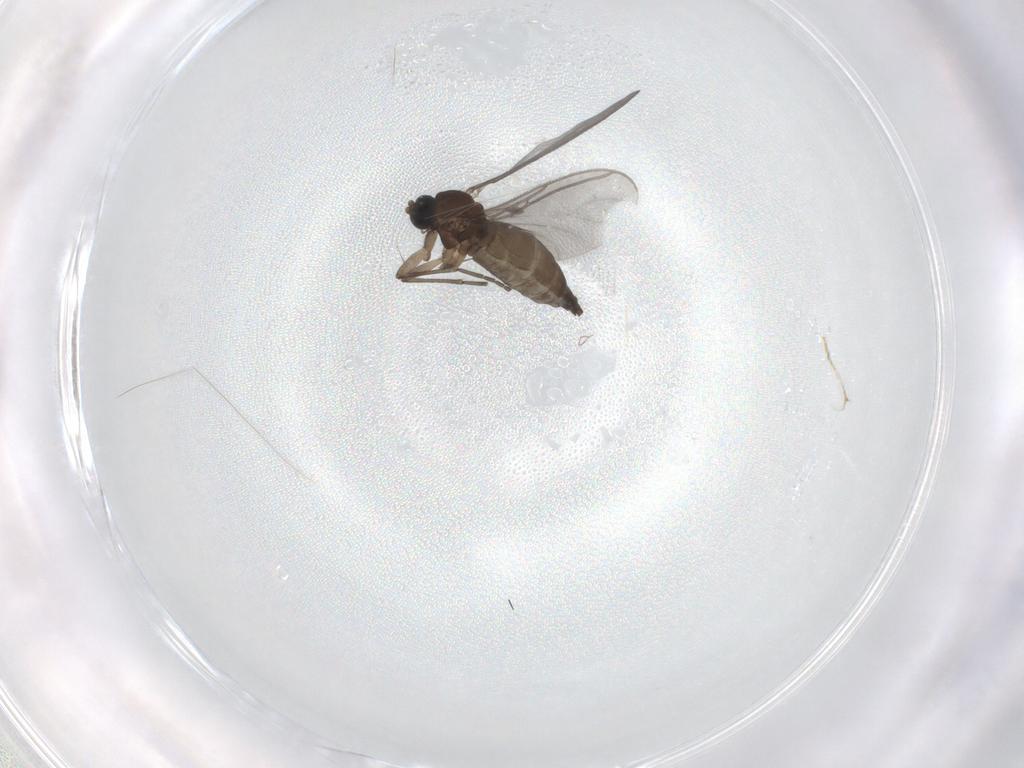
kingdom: Animalia
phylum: Arthropoda
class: Insecta
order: Diptera
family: Sciaridae
